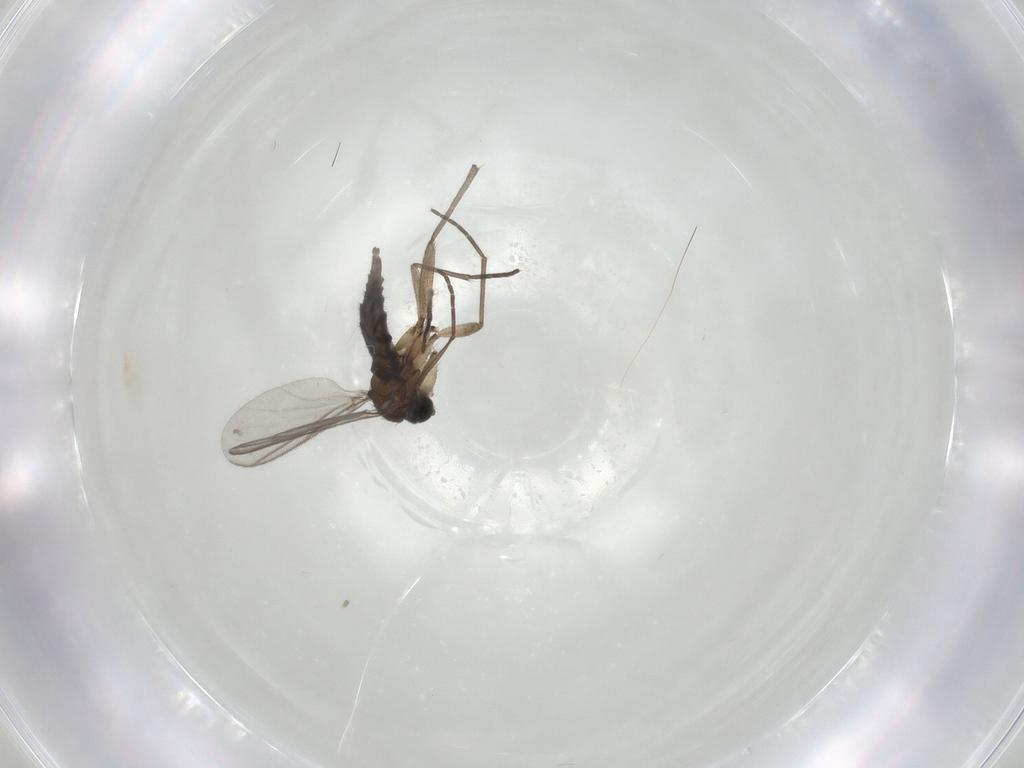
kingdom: Animalia
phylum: Arthropoda
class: Insecta
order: Diptera
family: Sciaridae
